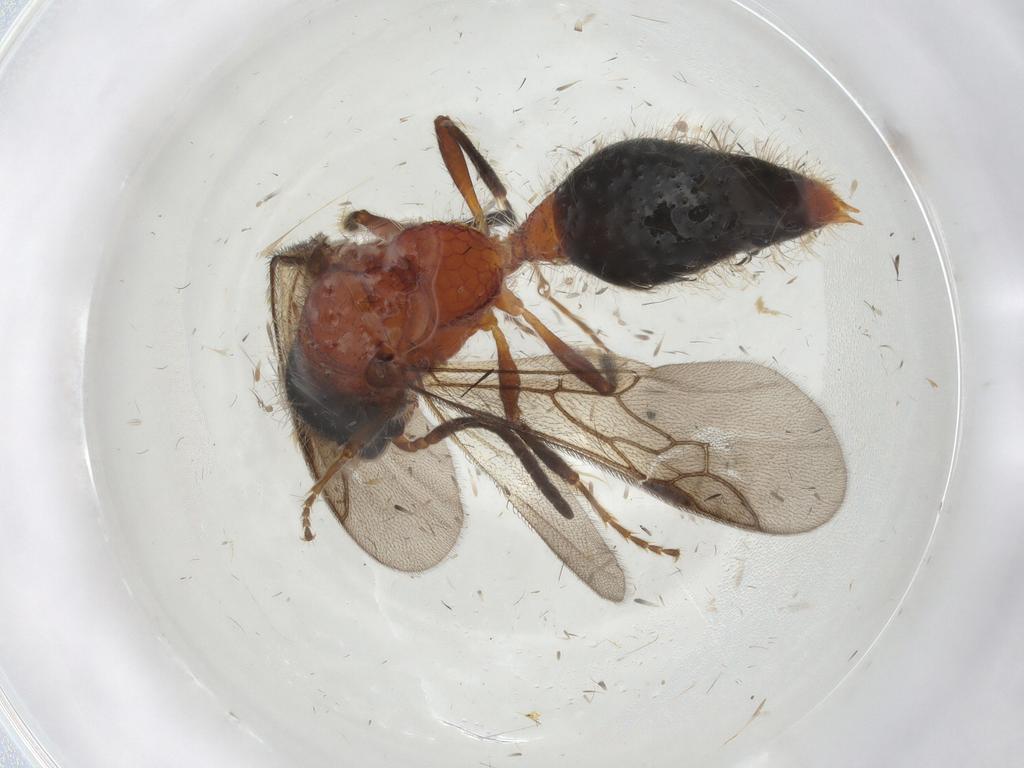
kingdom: Animalia
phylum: Arthropoda
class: Insecta
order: Hymenoptera
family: Mutillidae
